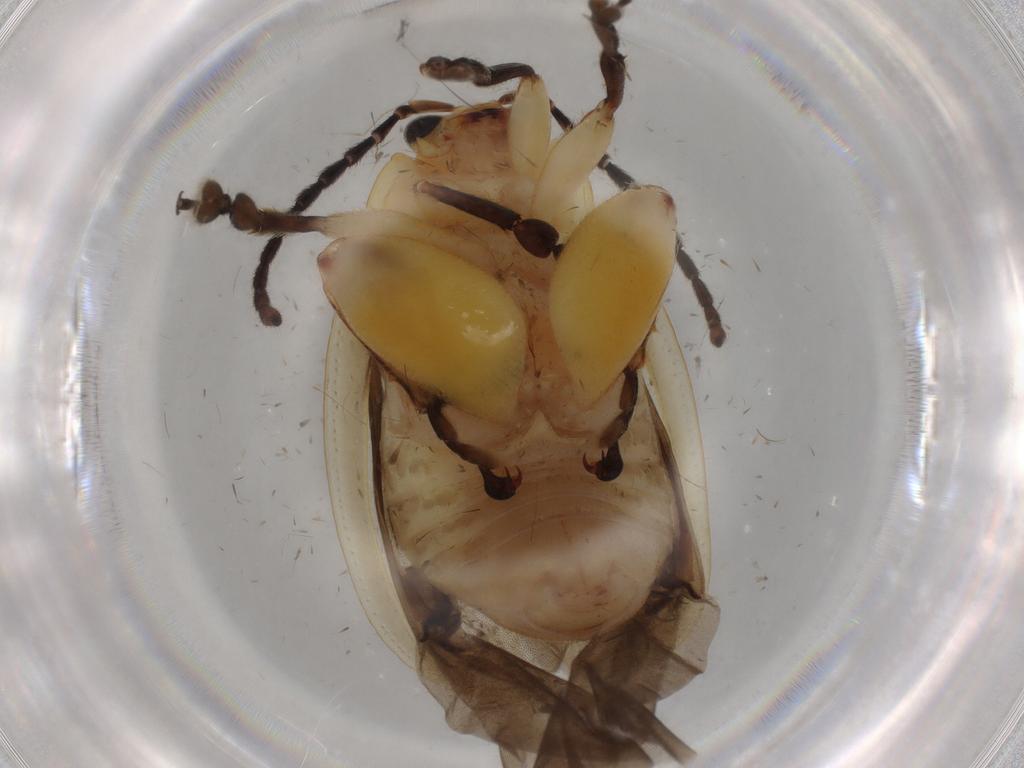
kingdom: Animalia
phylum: Arthropoda
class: Insecta
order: Coleoptera
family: Chrysomelidae
